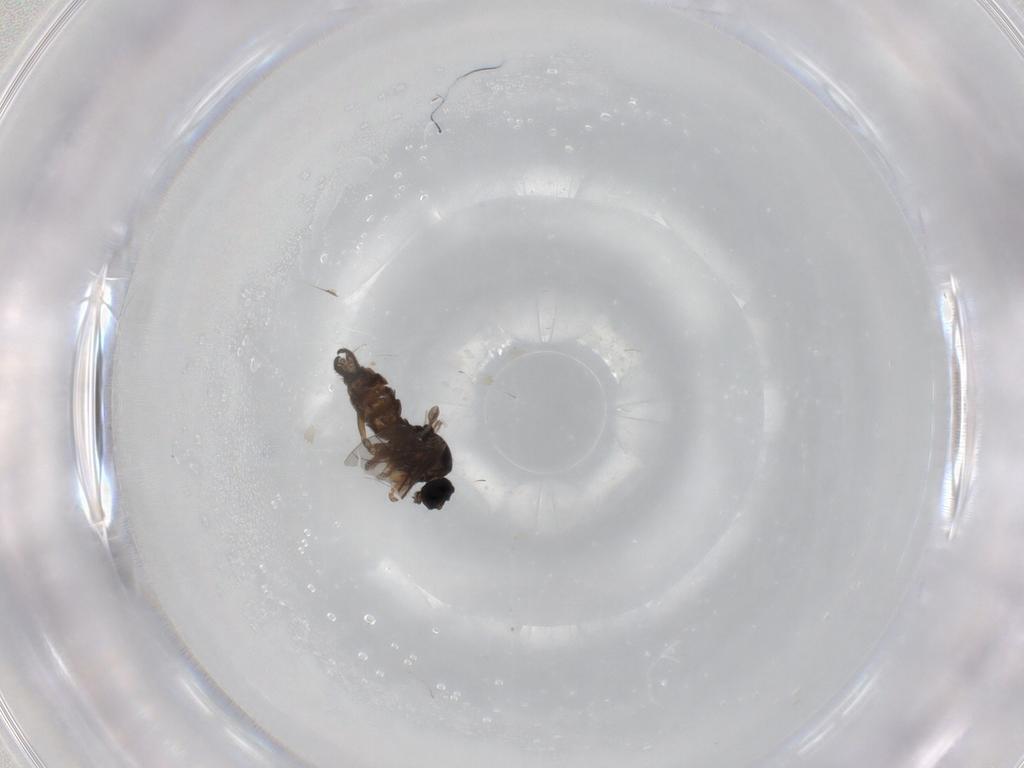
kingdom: Animalia
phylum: Arthropoda
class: Insecta
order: Diptera
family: Sciaridae
